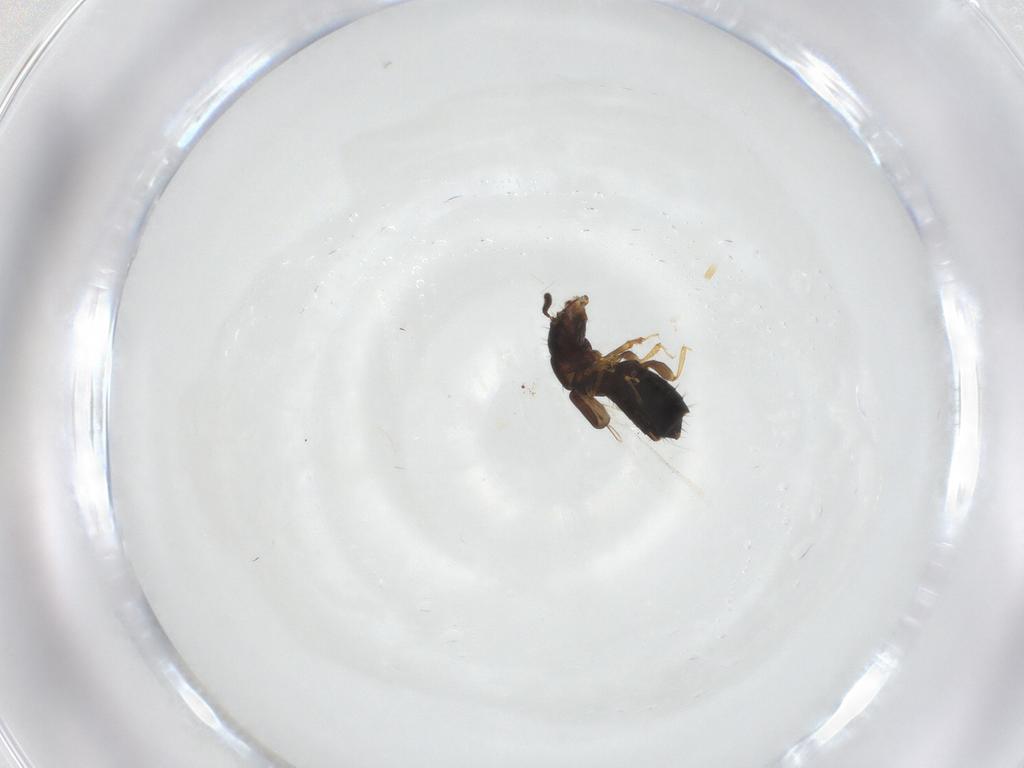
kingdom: Animalia
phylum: Arthropoda
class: Insecta
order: Coleoptera
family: Staphylinidae
